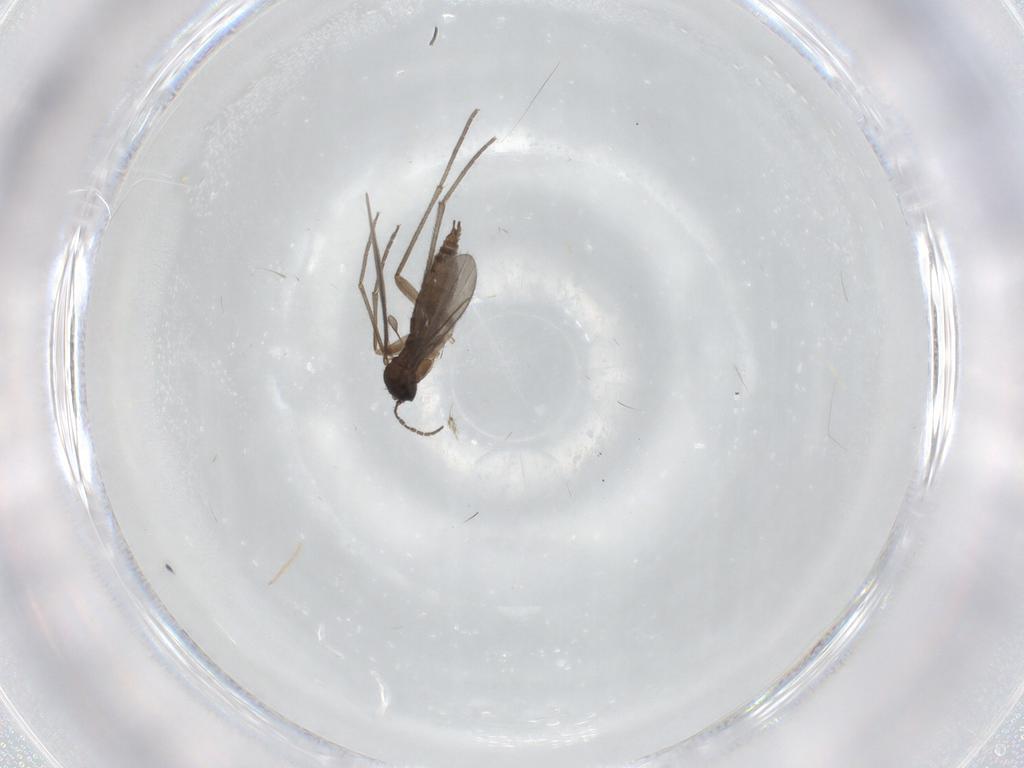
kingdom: Animalia
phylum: Arthropoda
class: Insecta
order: Diptera
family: Sciaridae
